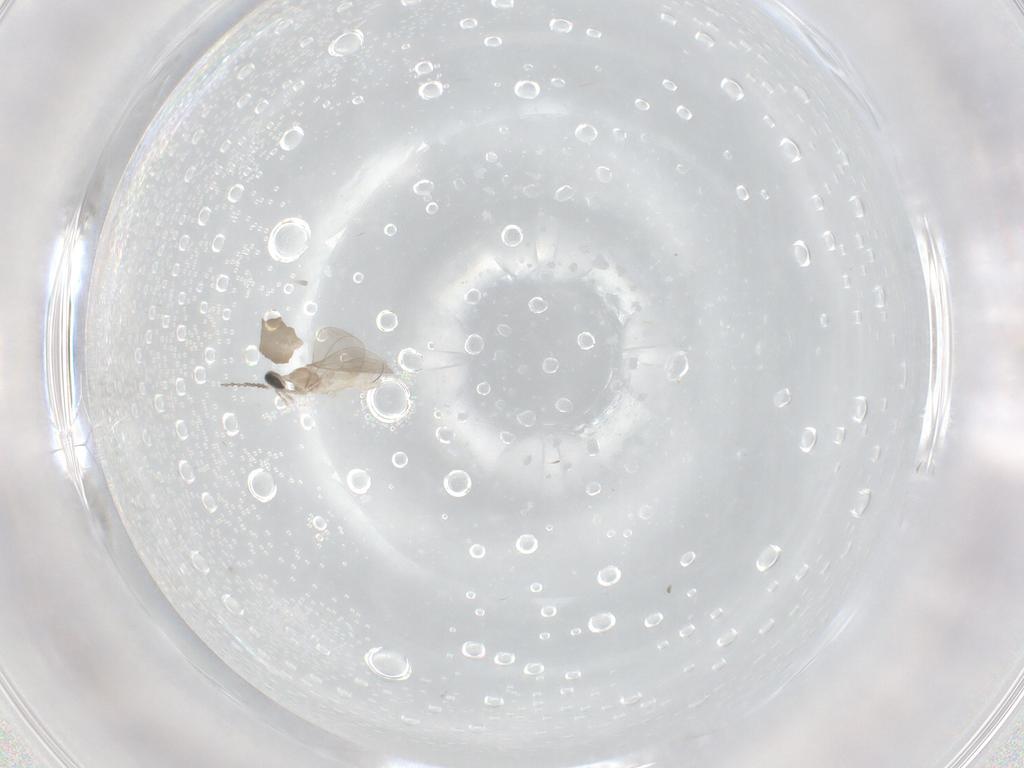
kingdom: Animalia
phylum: Arthropoda
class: Insecta
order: Diptera
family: Cecidomyiidae
